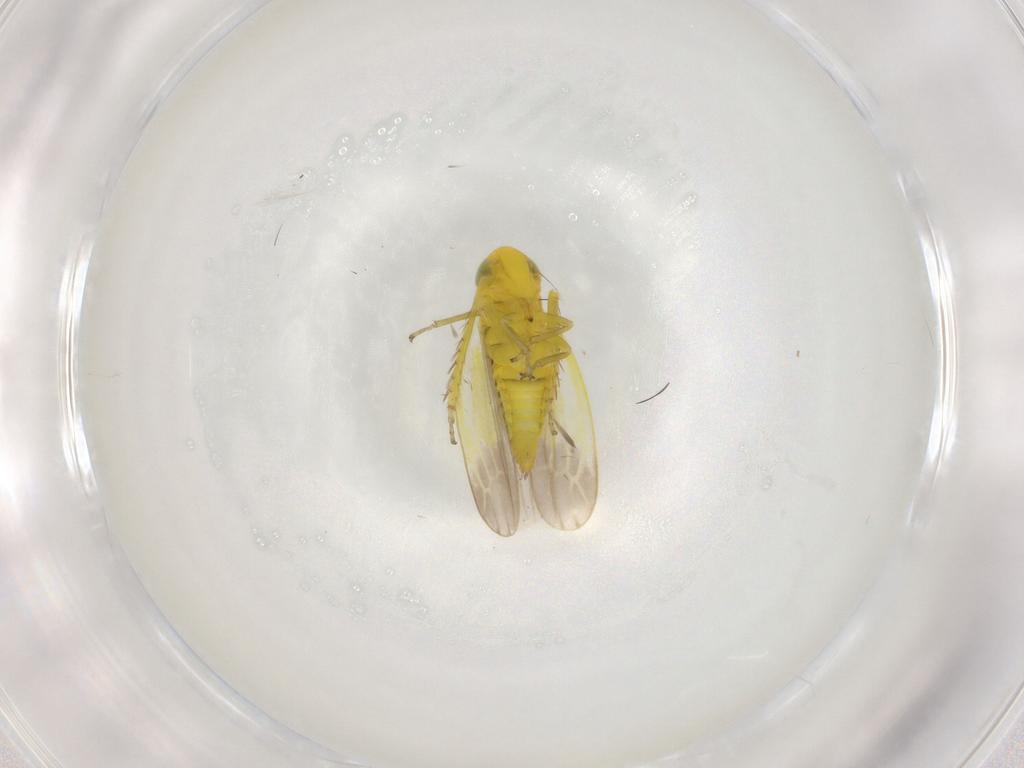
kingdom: Animalia
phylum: Arthropoda
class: Insecta
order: Hemiptera
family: Cicadellidae
